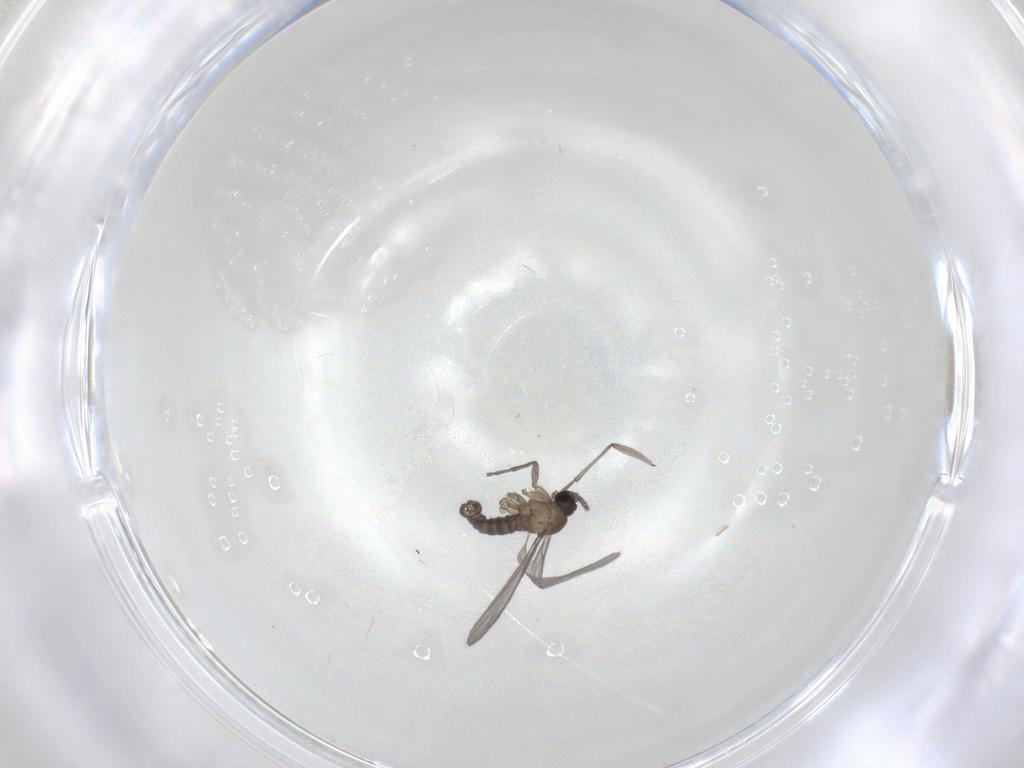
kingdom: Animalia
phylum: Arthropoda
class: Insecta
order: Diptera
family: Sciaridae
